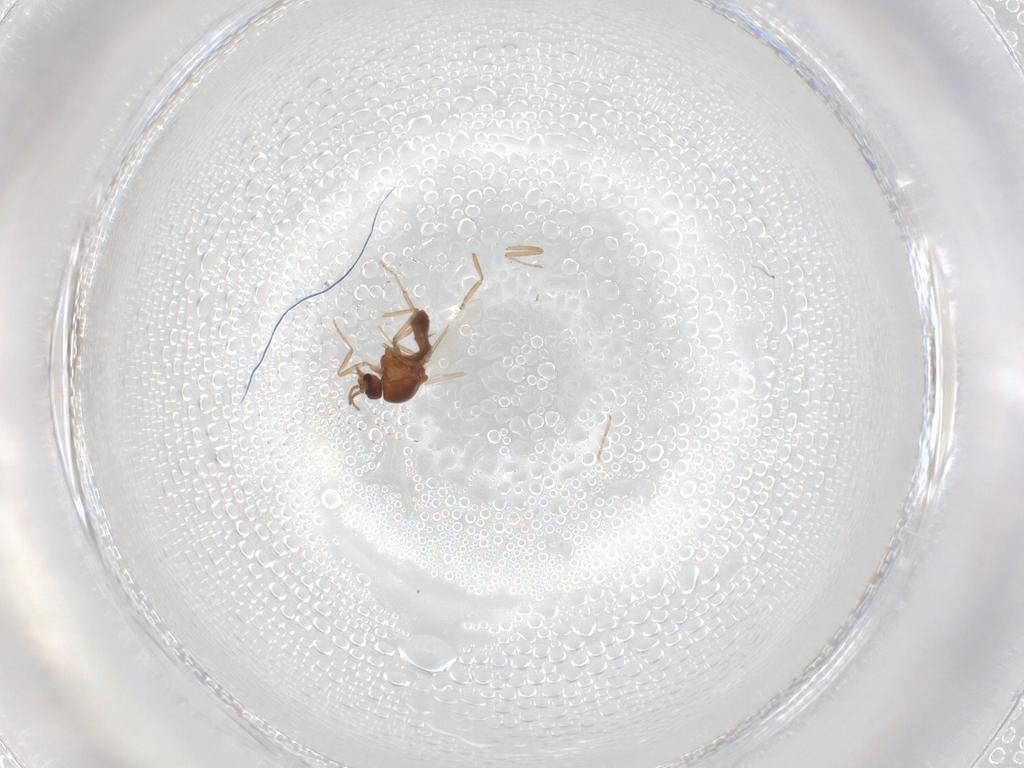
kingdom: Animalia
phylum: Arthropoda
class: Insecta
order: Diptera
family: Ceratopogonidae
